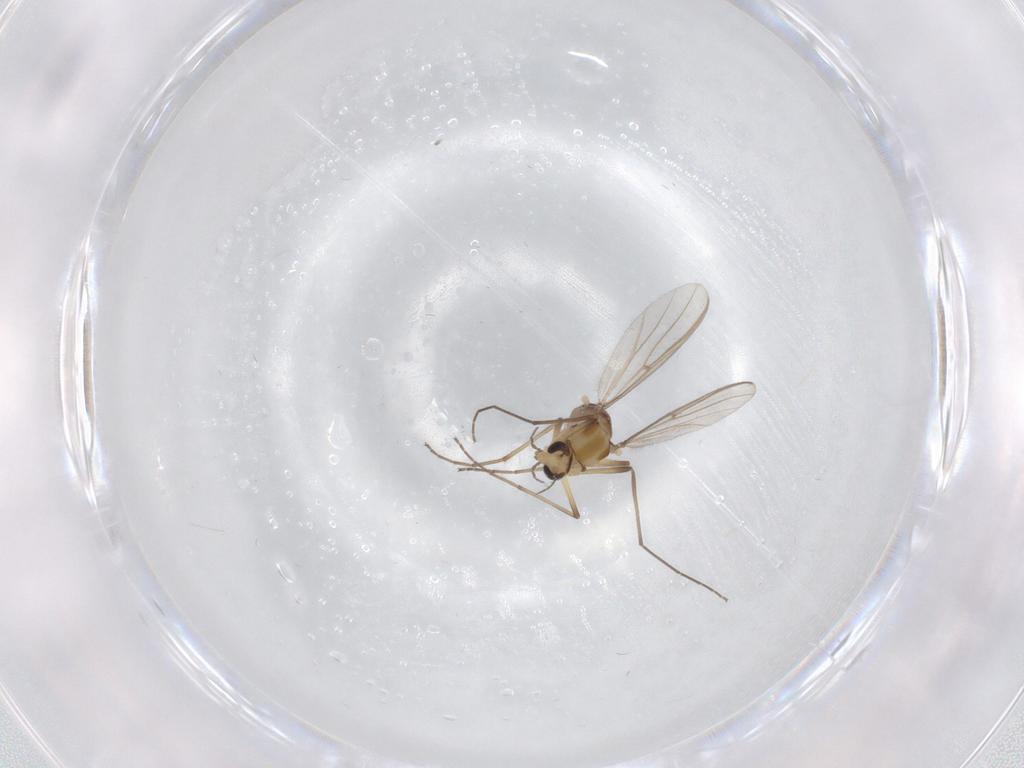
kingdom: Animalia
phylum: Arthropoda
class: Insecta
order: Diptera
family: Chironomidae
